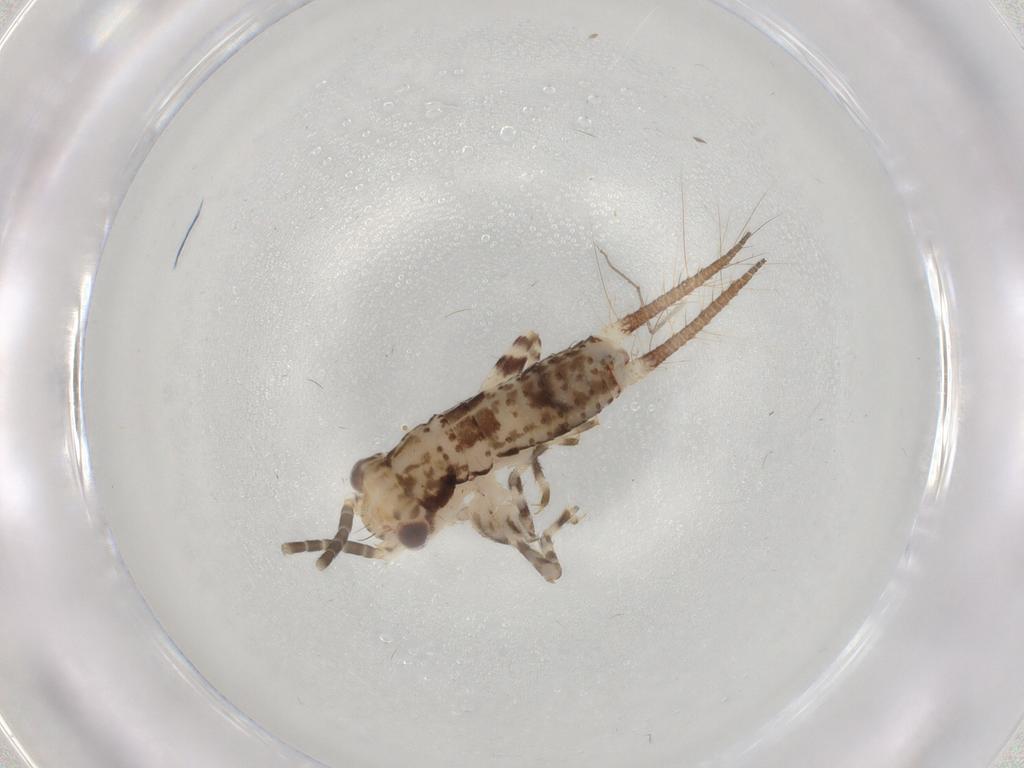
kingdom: Animalia
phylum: Arthropoda
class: Insecta
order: Orthoptera
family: Gryllidae
